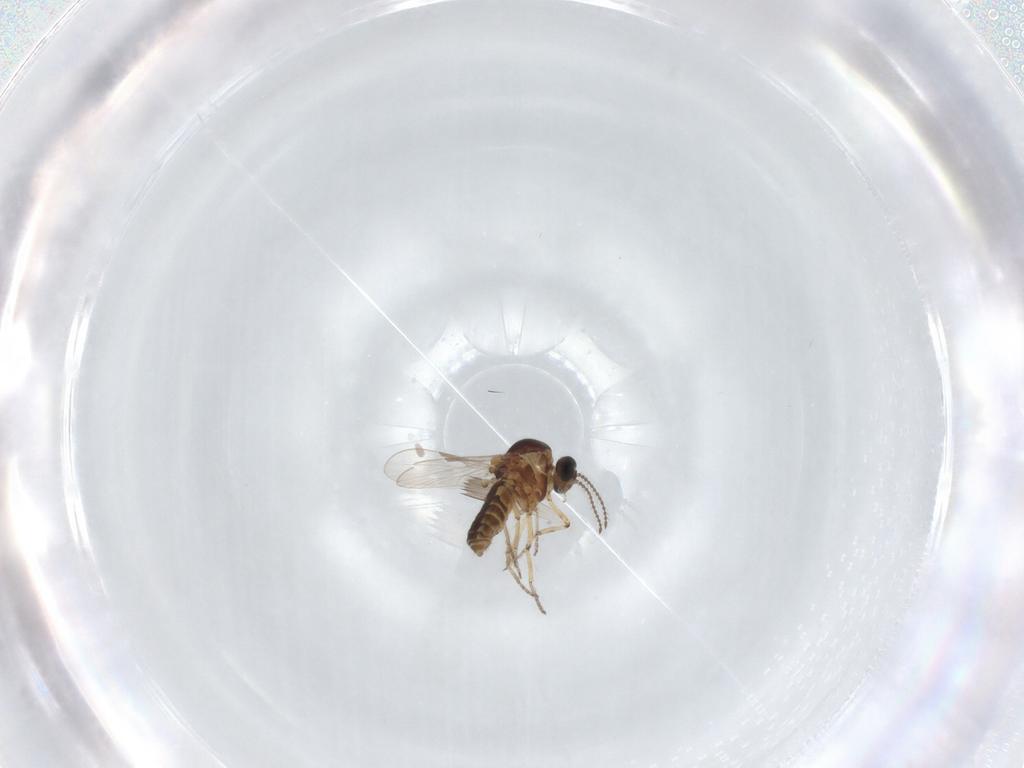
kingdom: Animalia
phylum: Arthropoda
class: Insecta
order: Diptera
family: Ceratopogonidae
